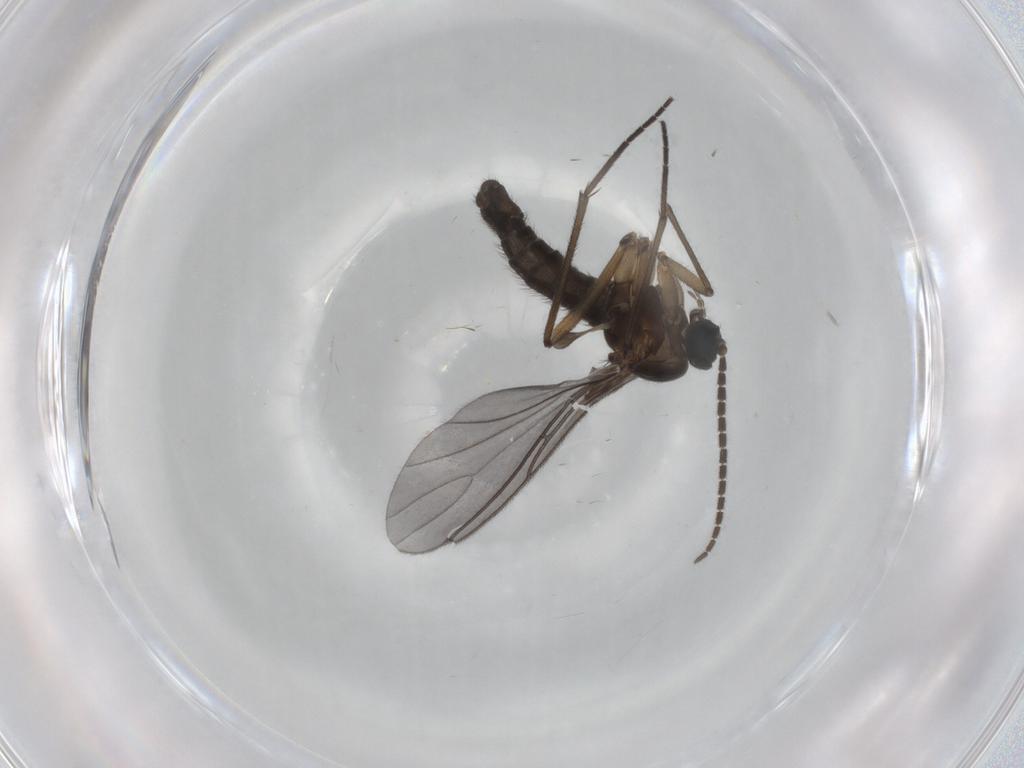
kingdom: Animalia
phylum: Arthropoda
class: Insecta
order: Diptera
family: Sciaridae
